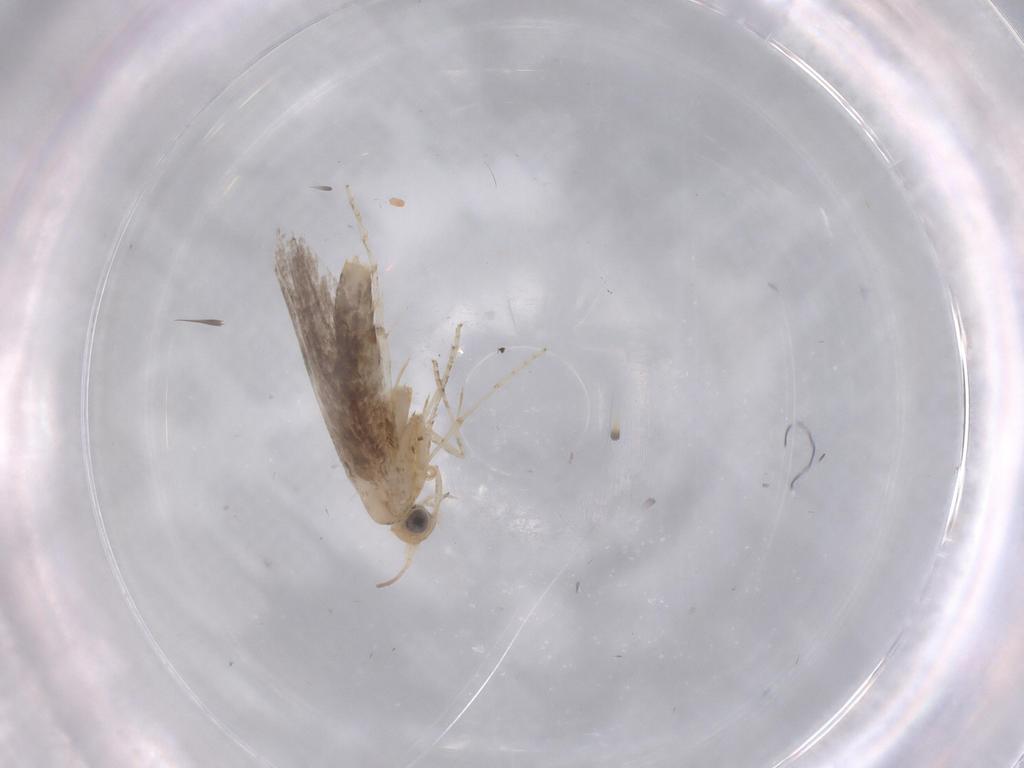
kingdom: Animalia
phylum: Arthropoda
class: Insecta
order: Lepidoptera
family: Argyresthiidae
